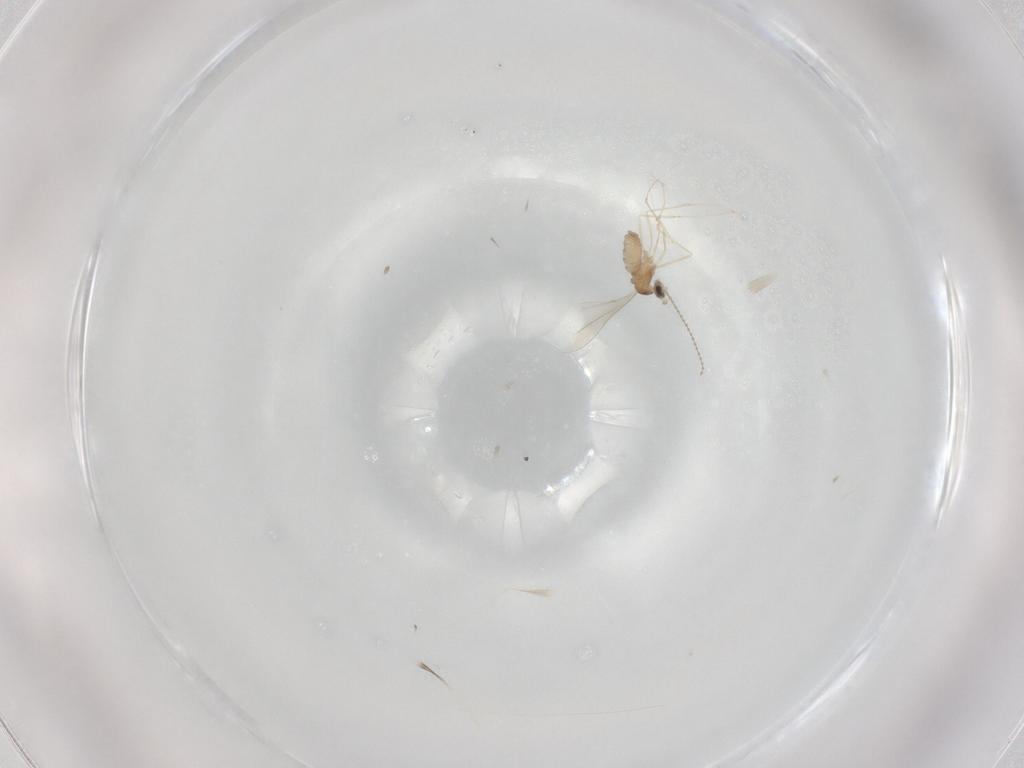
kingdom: Animalia
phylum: Arthropoda
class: Insecta
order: Diptera
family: Cecidomyiidae
